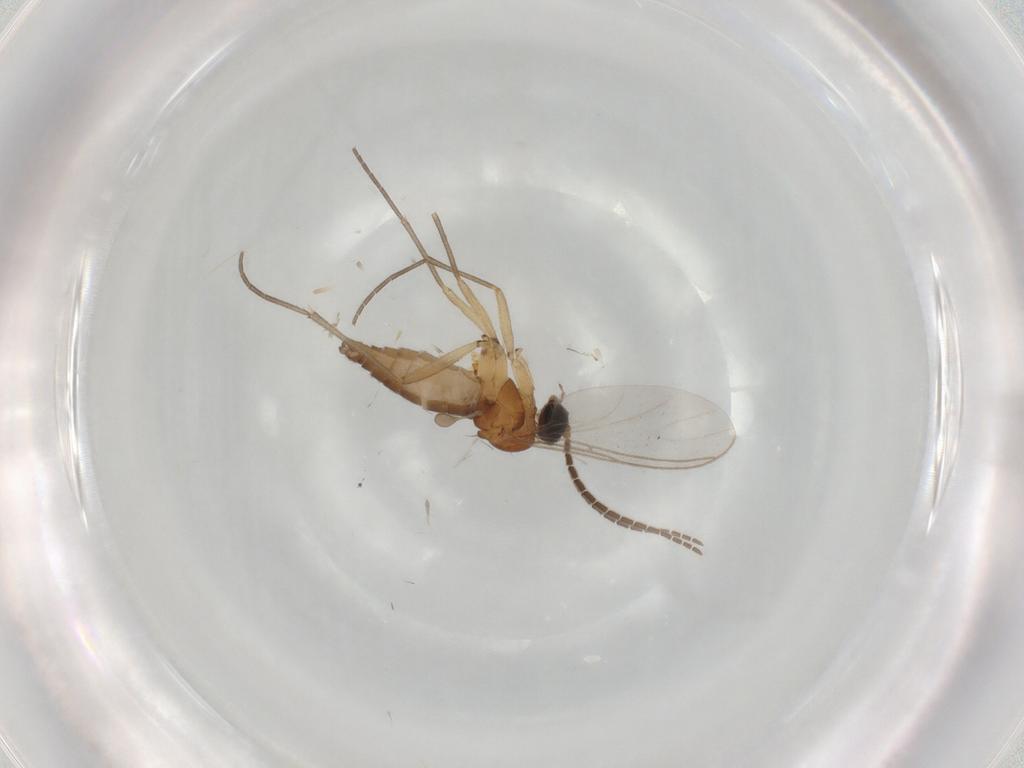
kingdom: Animalia
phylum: Arthropoda
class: Insecta
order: Diptera
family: Sciaridae
